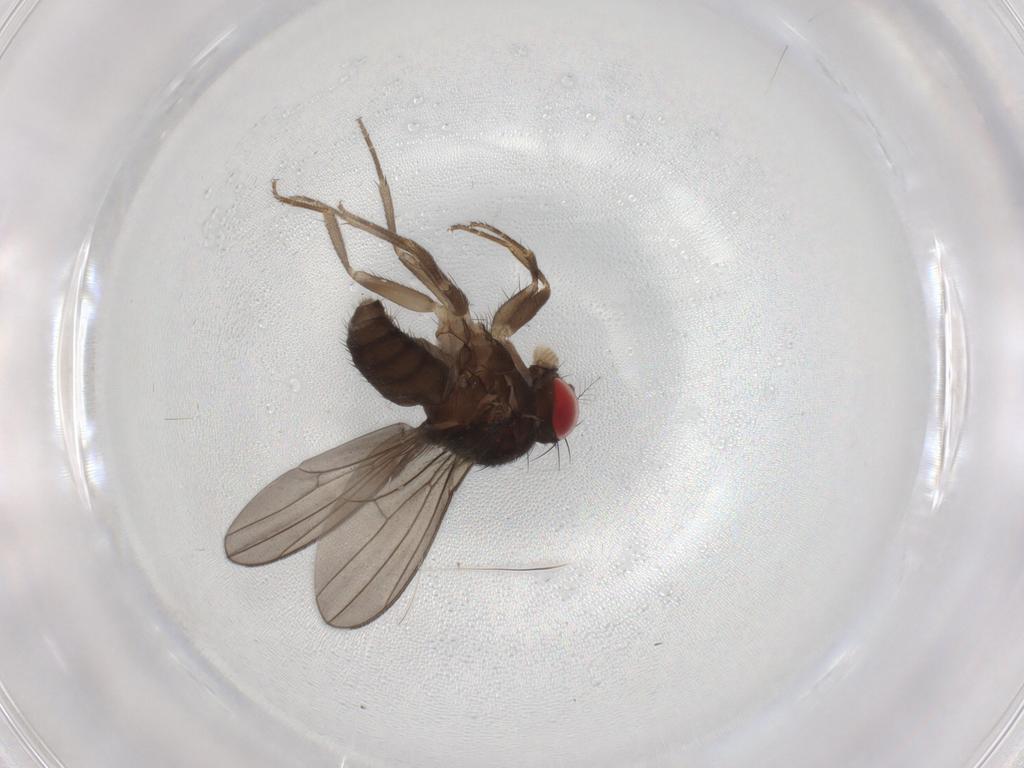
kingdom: Animalia
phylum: Arthropoda
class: Insecta
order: Diptera
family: Drosophilidae
